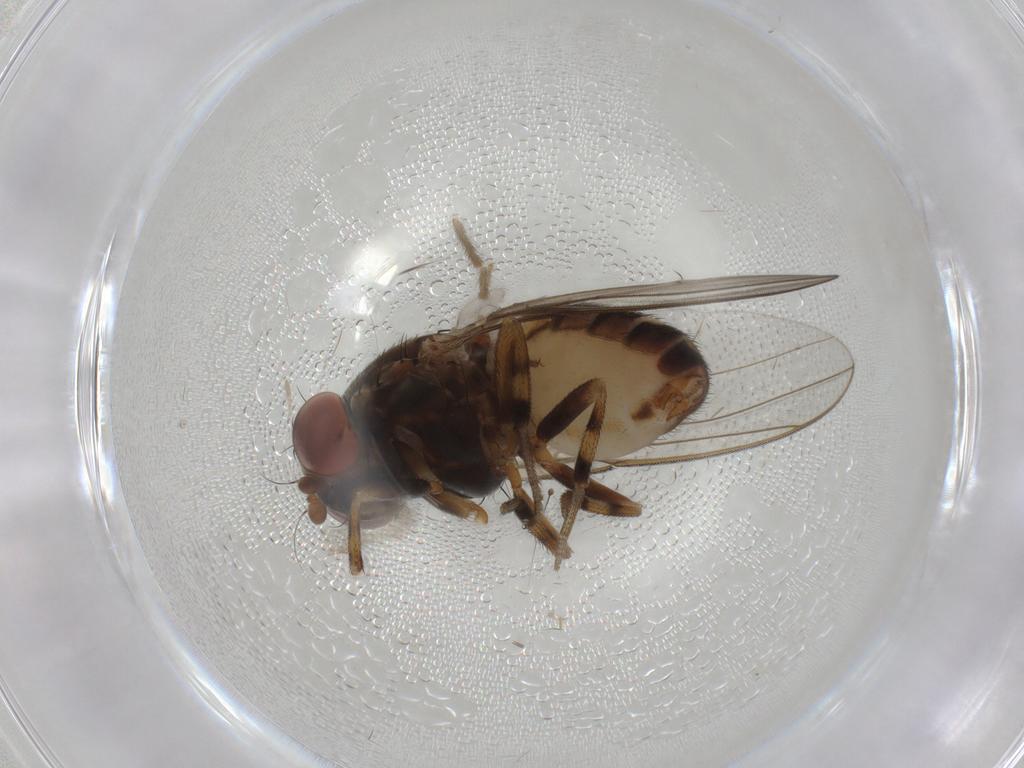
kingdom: Animalia
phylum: Arthropoda
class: Insecta
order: Diptera
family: Drosophilidae
